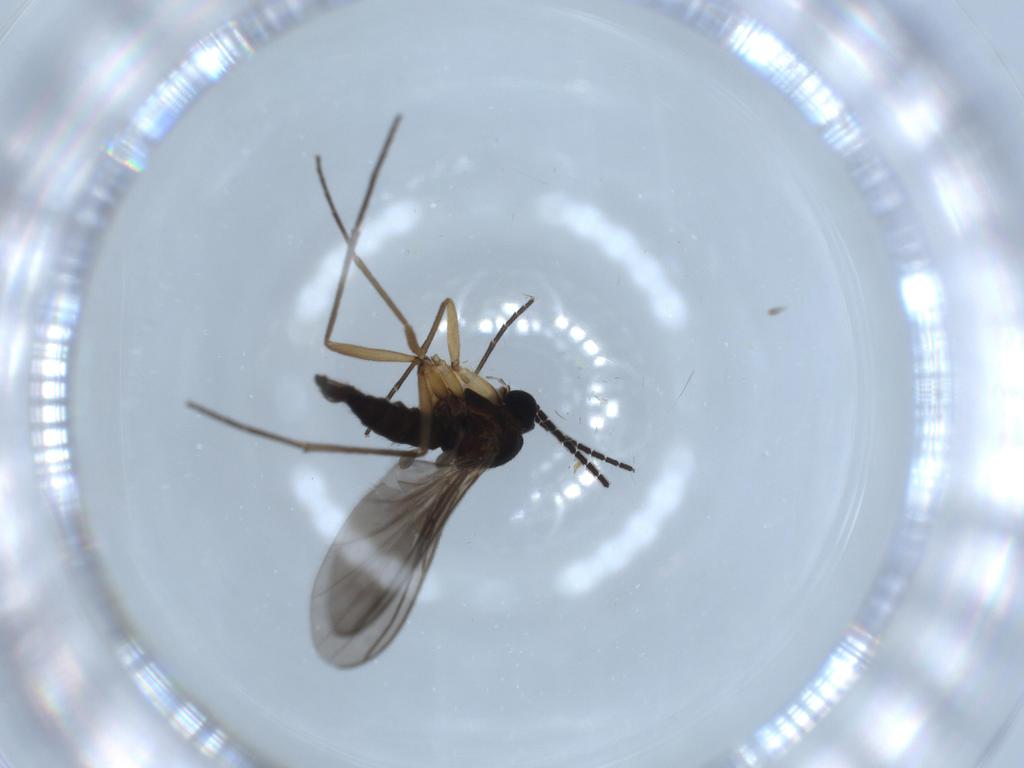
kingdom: Animalia
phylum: Arthropoda
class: Insecta
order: Diptera
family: Sciaridae
